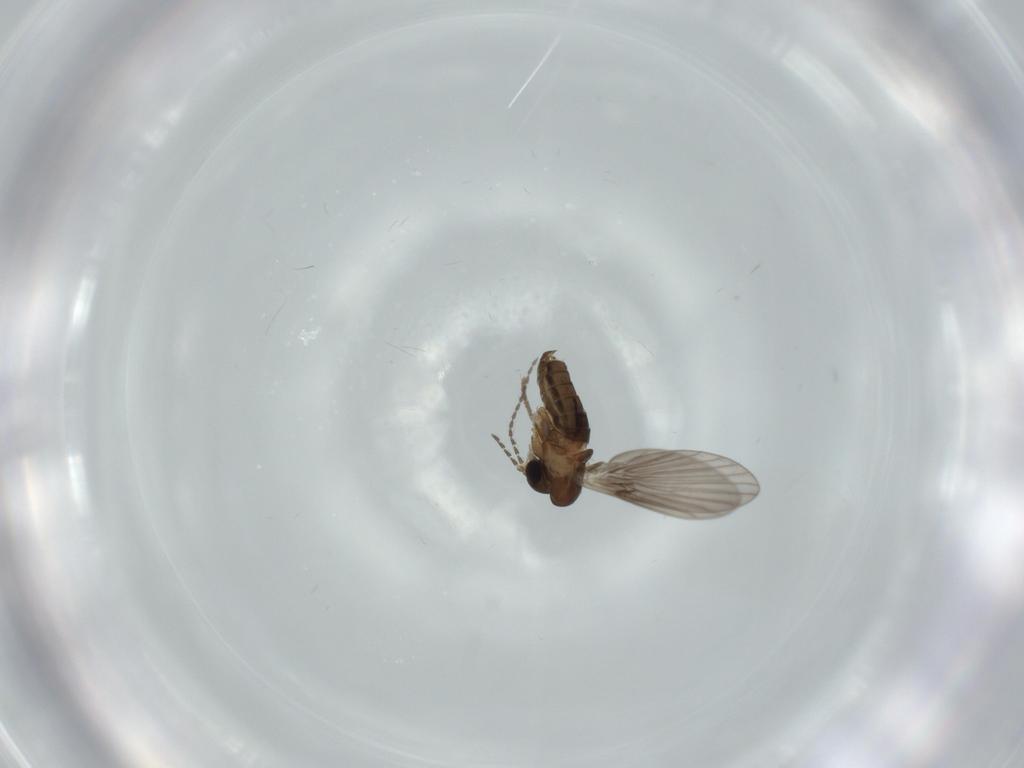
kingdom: Animalia
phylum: Arthropoda
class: Insecta
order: Diptera
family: Psychodidae
